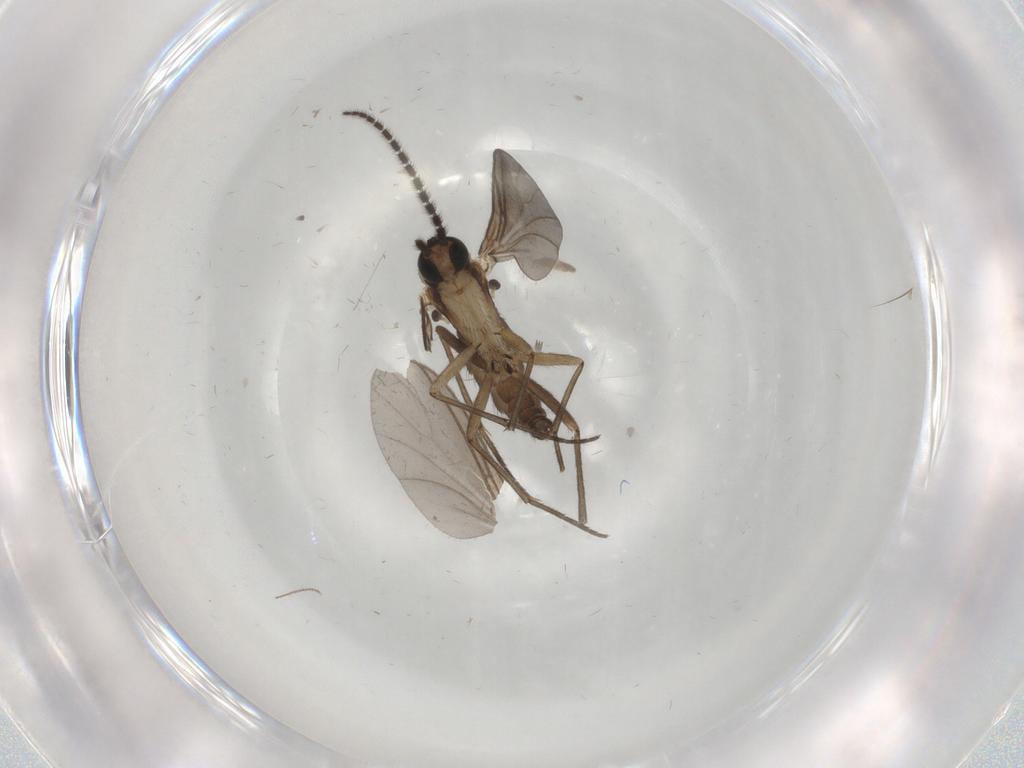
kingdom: Animalia
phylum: Arthropoda
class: Insecta
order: Diptera
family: Sciaridae
